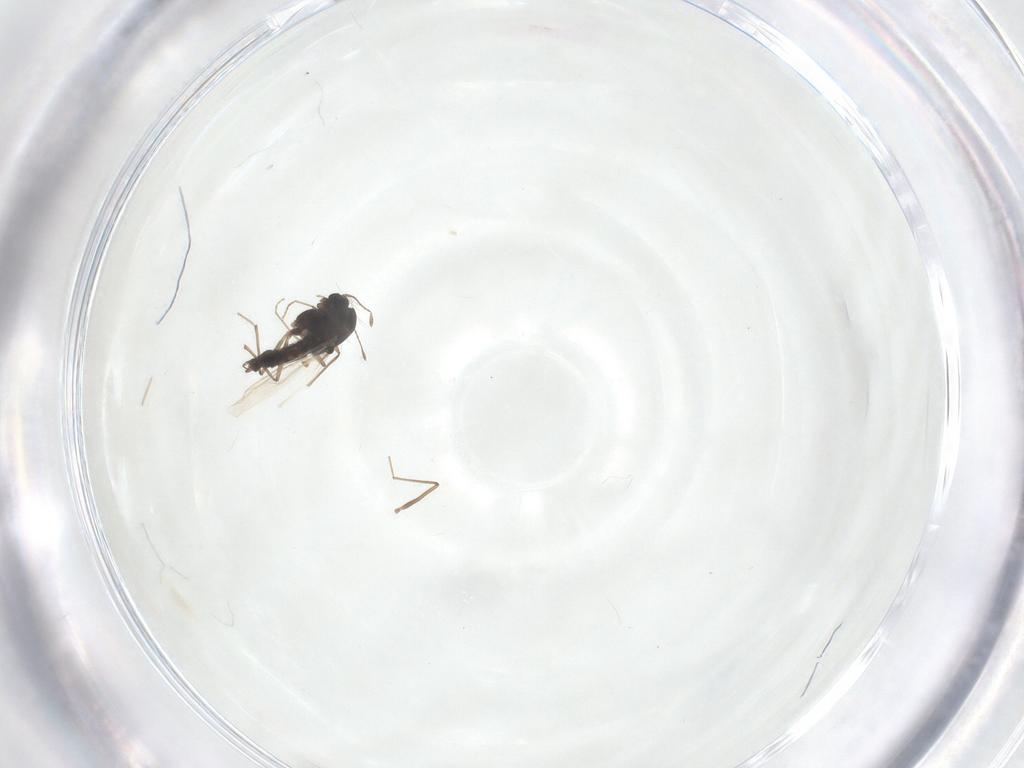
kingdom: Animalia
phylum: Arthropoda
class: Insecta
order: Diptera
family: Chironomidae
